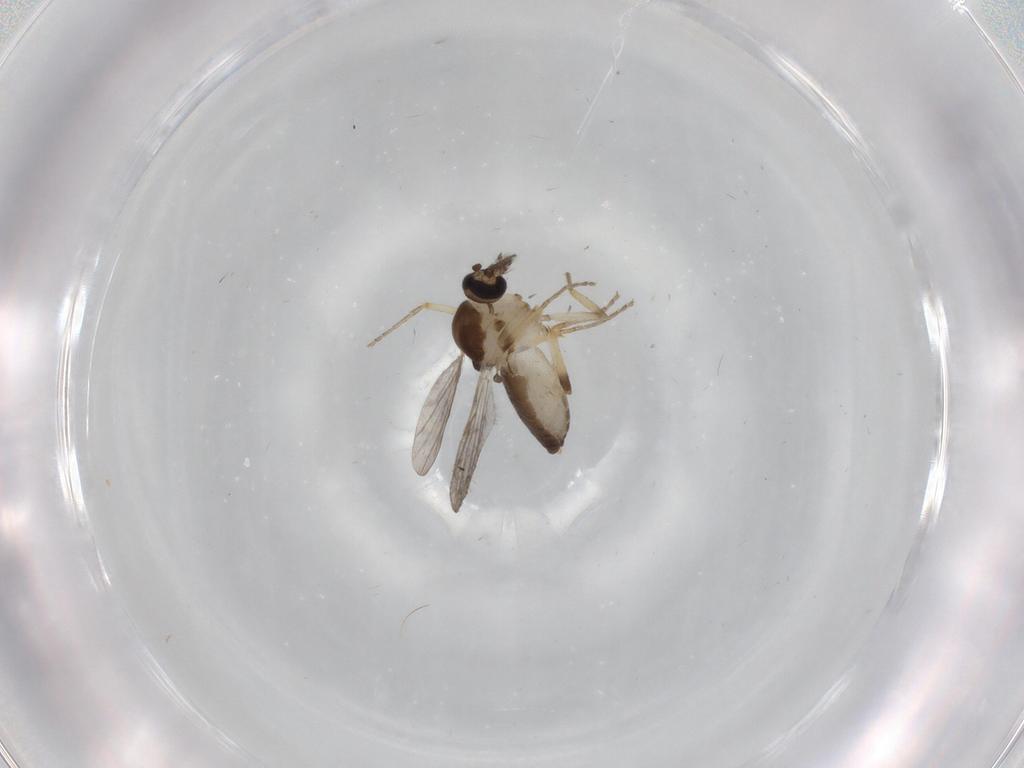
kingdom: Animalia
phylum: Arthropoda
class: Insecta
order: Diptera
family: Ceratopogonidae
